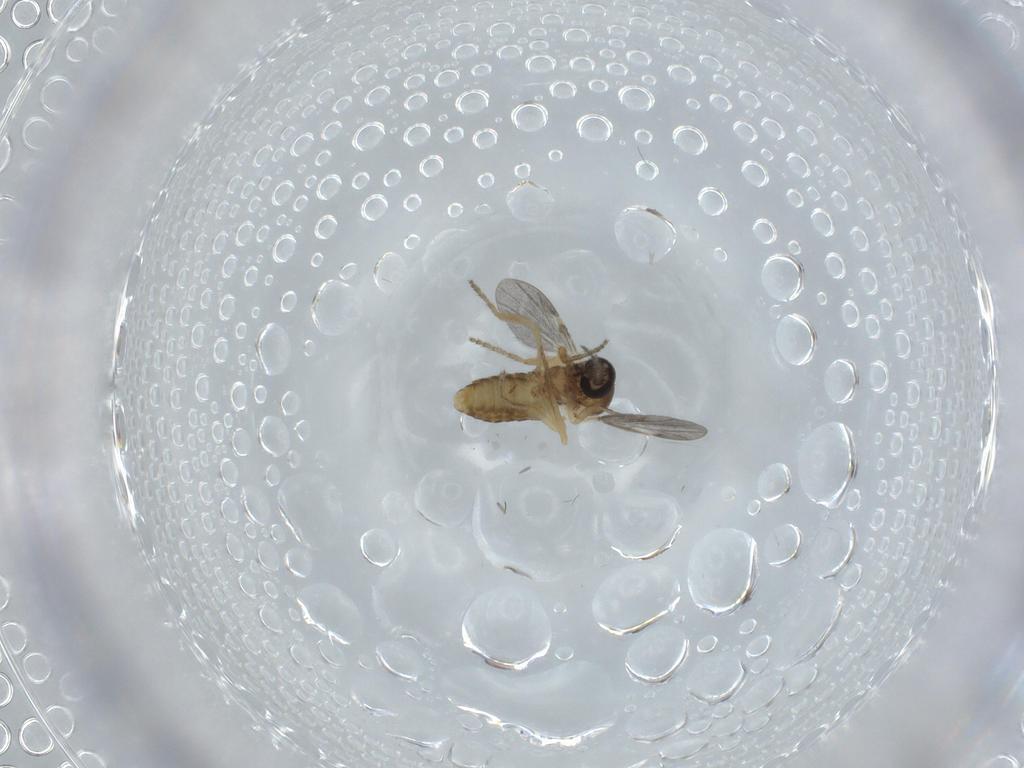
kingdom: Animalia
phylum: Arthropoda
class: Insecta
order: Diptera
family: Ceratopogonidae
